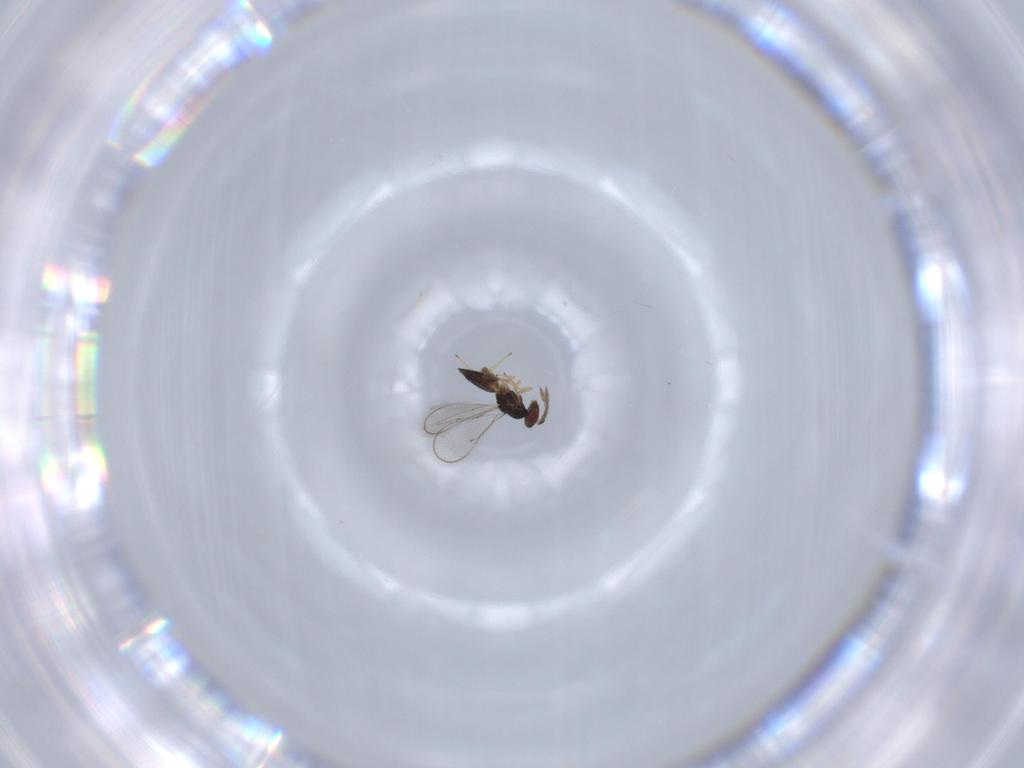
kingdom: Animalia
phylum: Arthropoda
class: Insecta
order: Hymenoptera
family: Eulophidae
